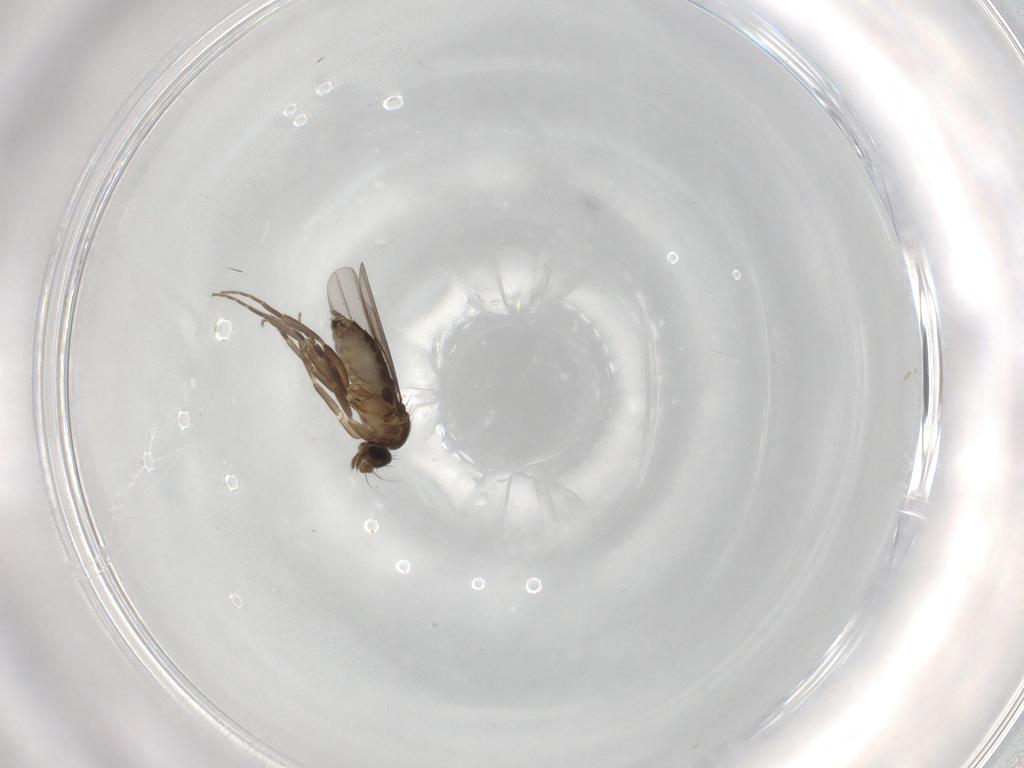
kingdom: Animalia
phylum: Arthropoda
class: Insecta
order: Diptera
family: Phoridae
